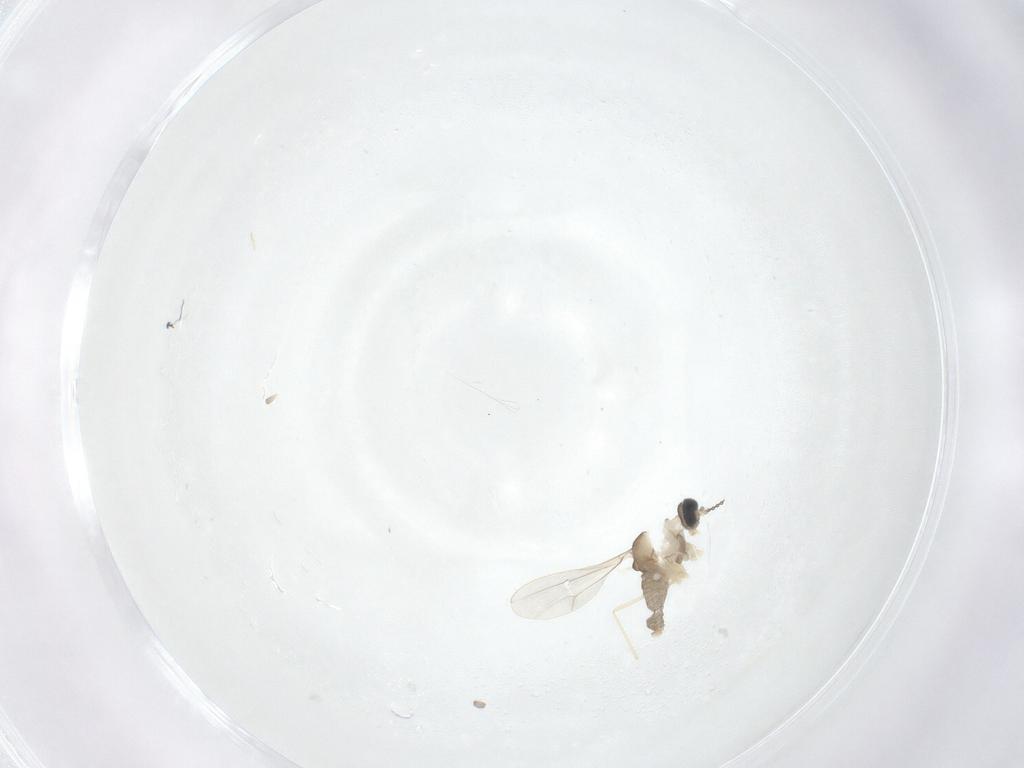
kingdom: Animalia
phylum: Arthropoda
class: Insecta
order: Diptera
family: Cecidomyiidae
